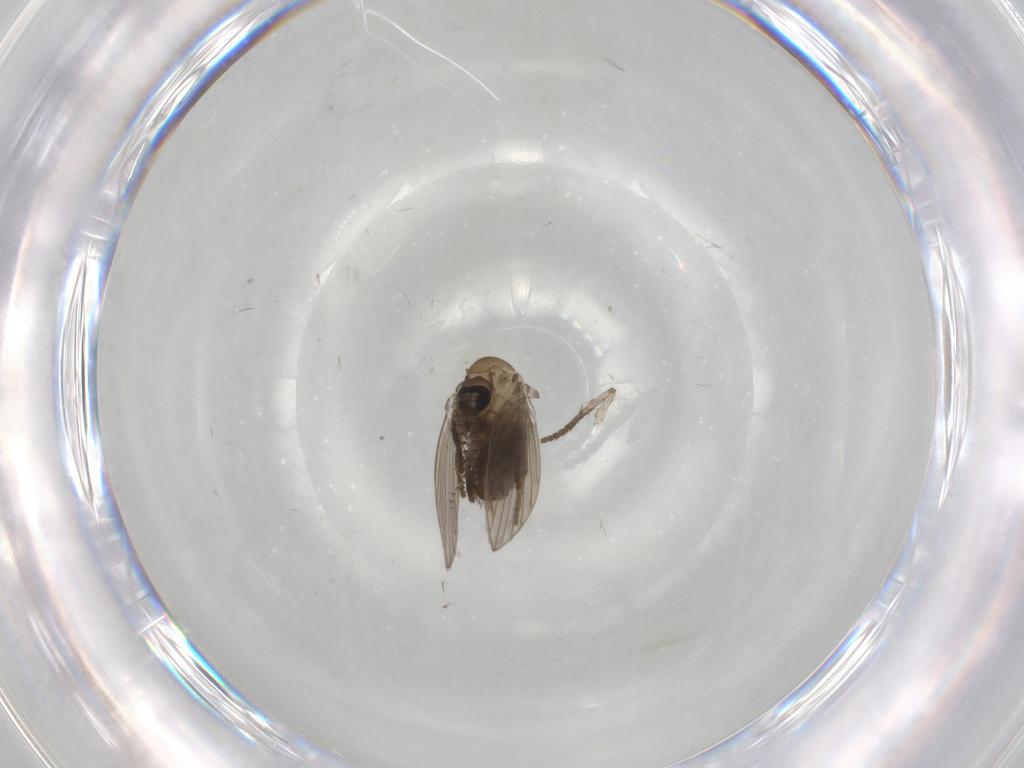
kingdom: Animalia
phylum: Arthropoda
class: Insecta
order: Diptera
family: Psychodidae
